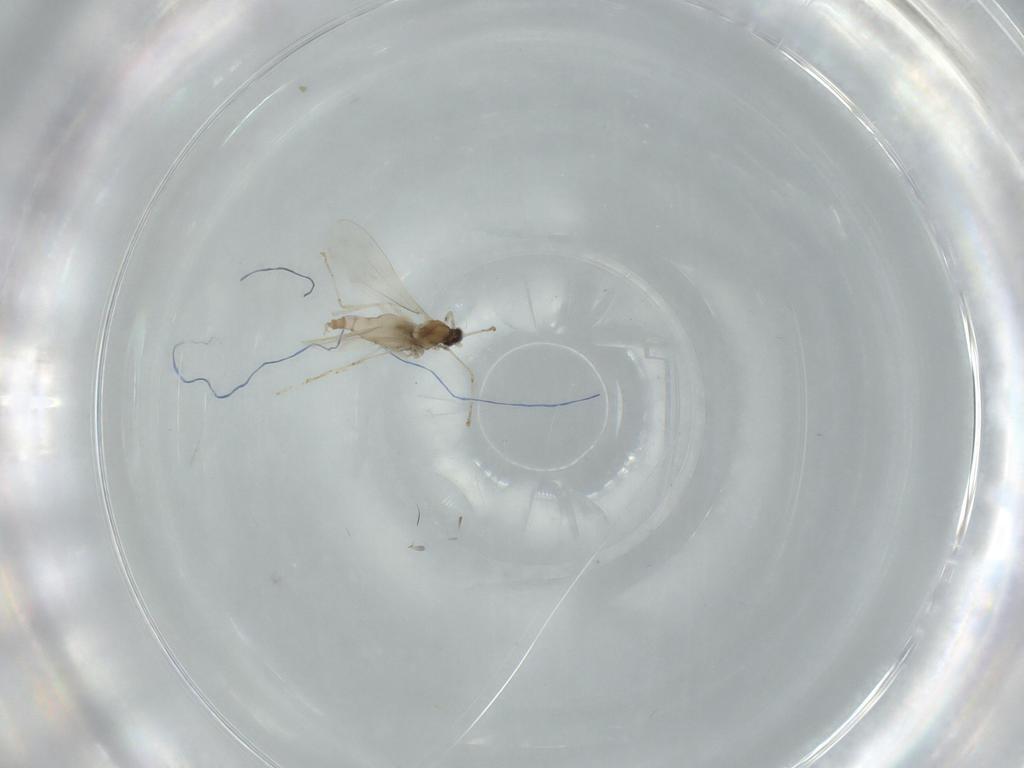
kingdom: Animalia
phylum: Arthropoda
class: Insecta
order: Diptera
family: Cecidomyiidae
